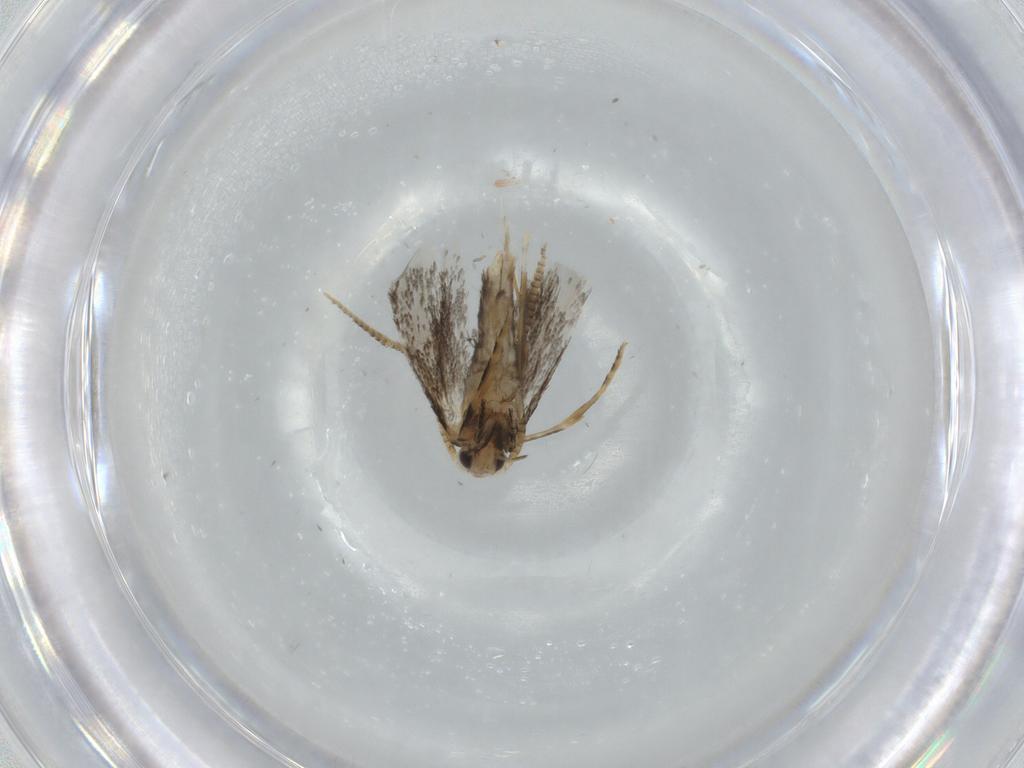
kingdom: Animalia
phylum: Arthropoda
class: Insecta
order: Lepidoptera
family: Tineidae
